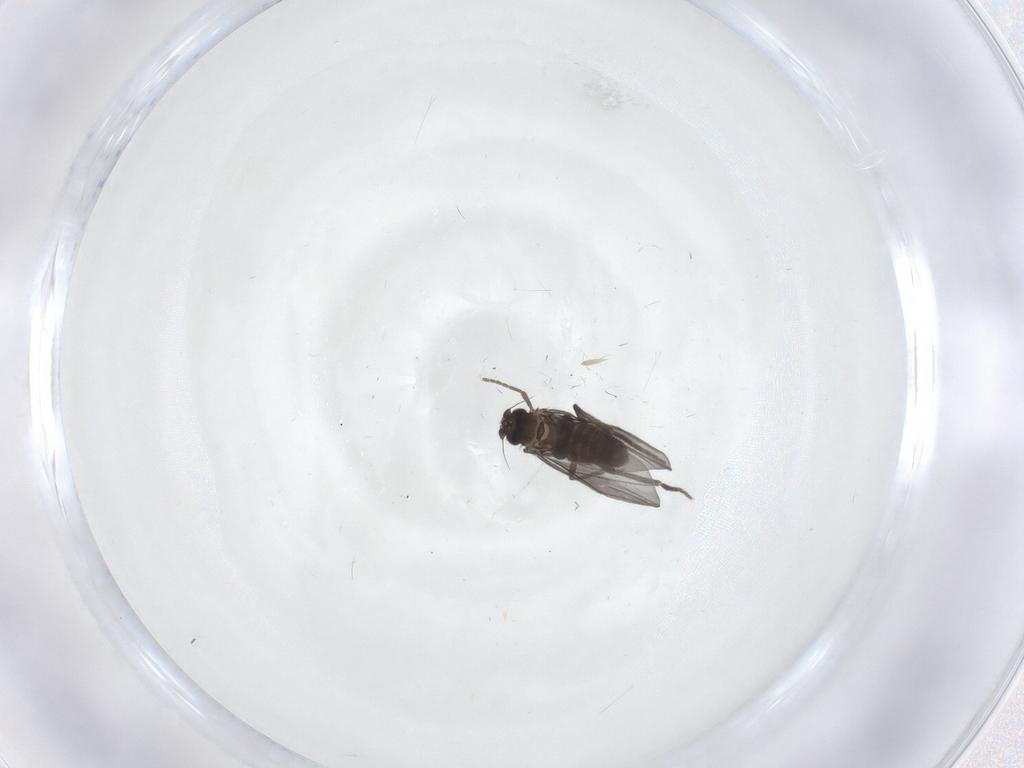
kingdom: Animalia
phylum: Arthropoda
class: Insecta
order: Diptera
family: Phoridae
